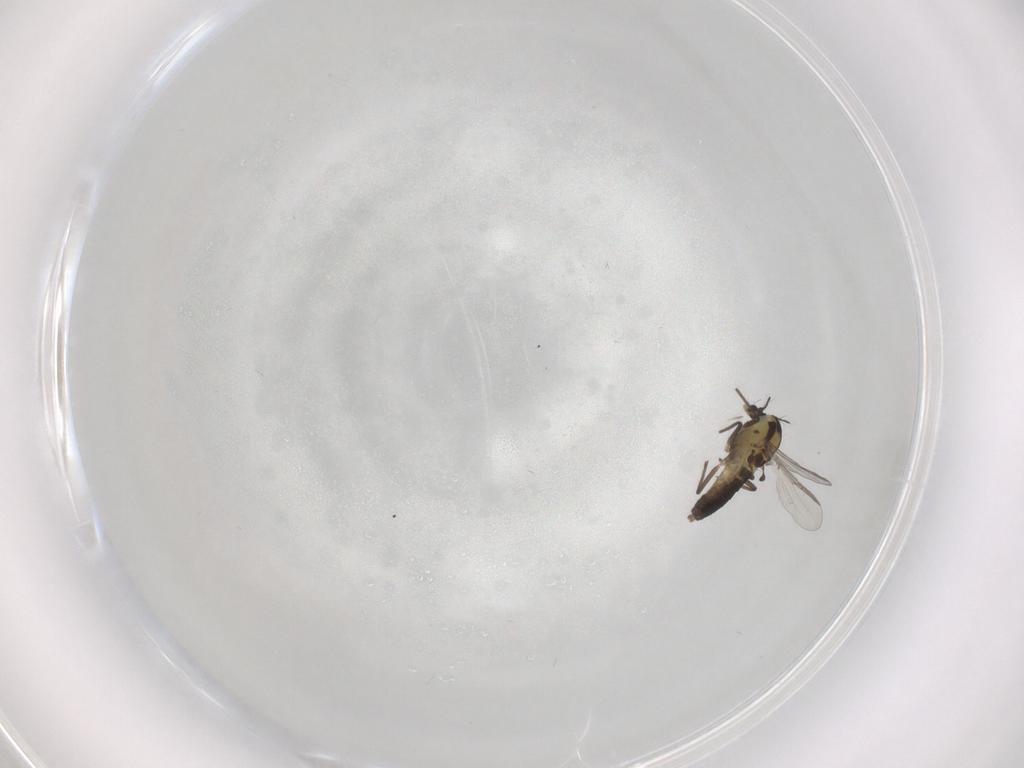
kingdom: Animalia
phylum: Arthropoda
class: Insecta
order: Diptera
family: Chironomidae
